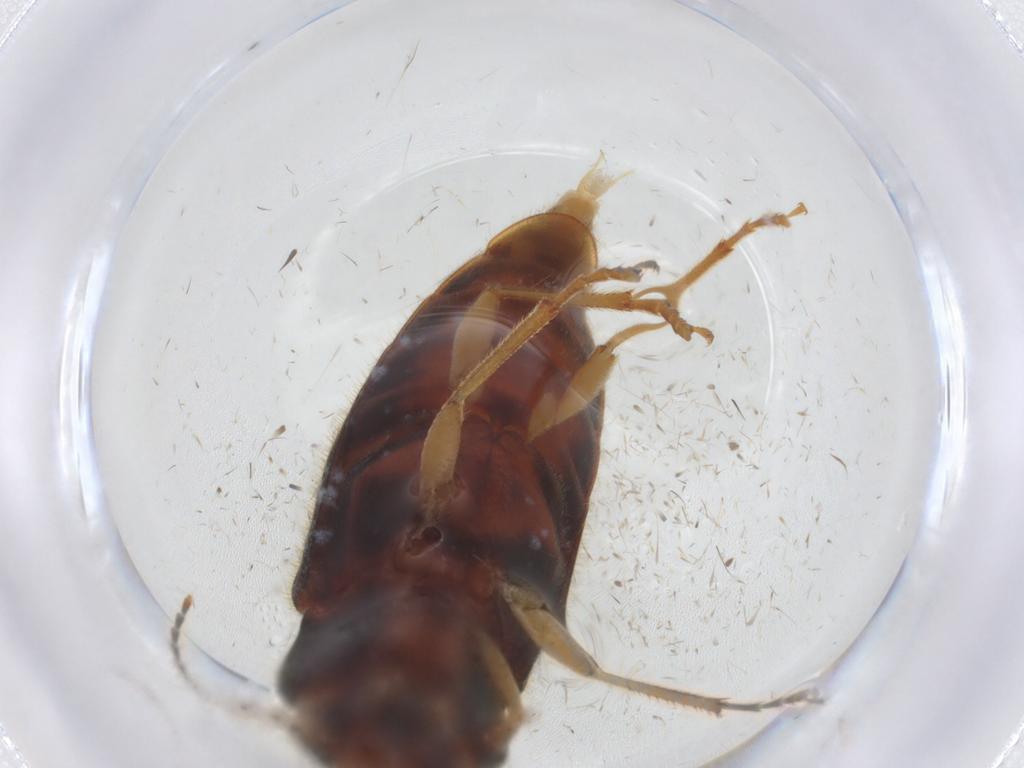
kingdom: Animalia
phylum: Arthropoda
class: Insecta
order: Coleoptera
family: Elateridae
